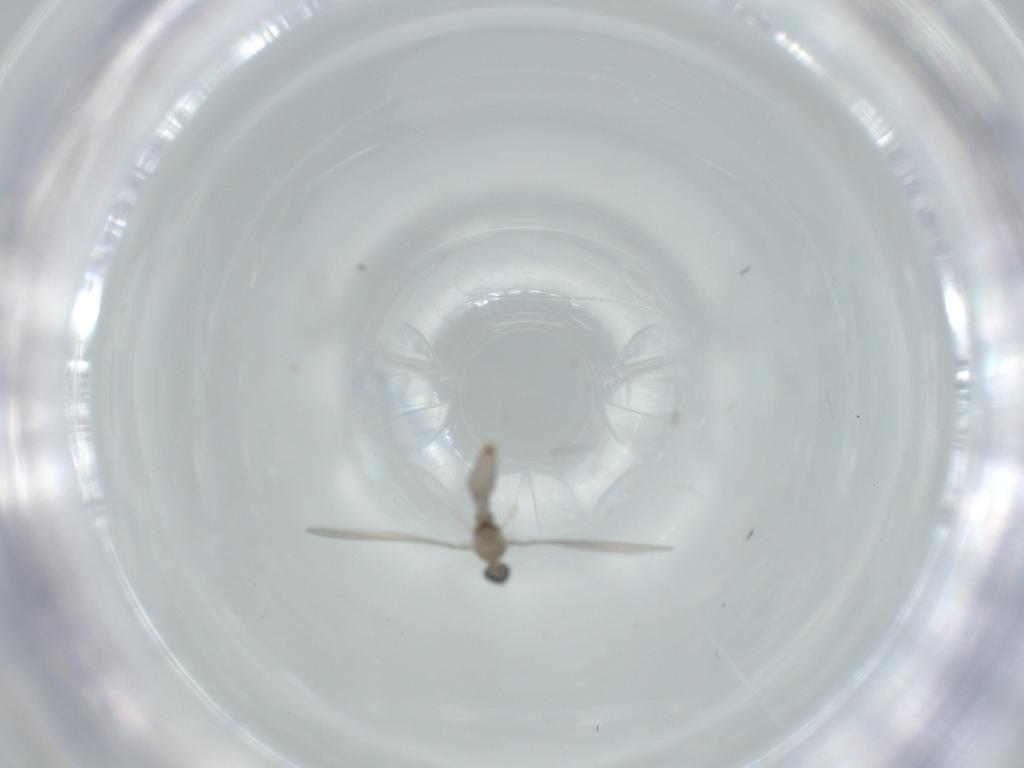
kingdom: Animalia
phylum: Arthropoda
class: Insecta
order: Diptera
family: Cecidomyiidae
